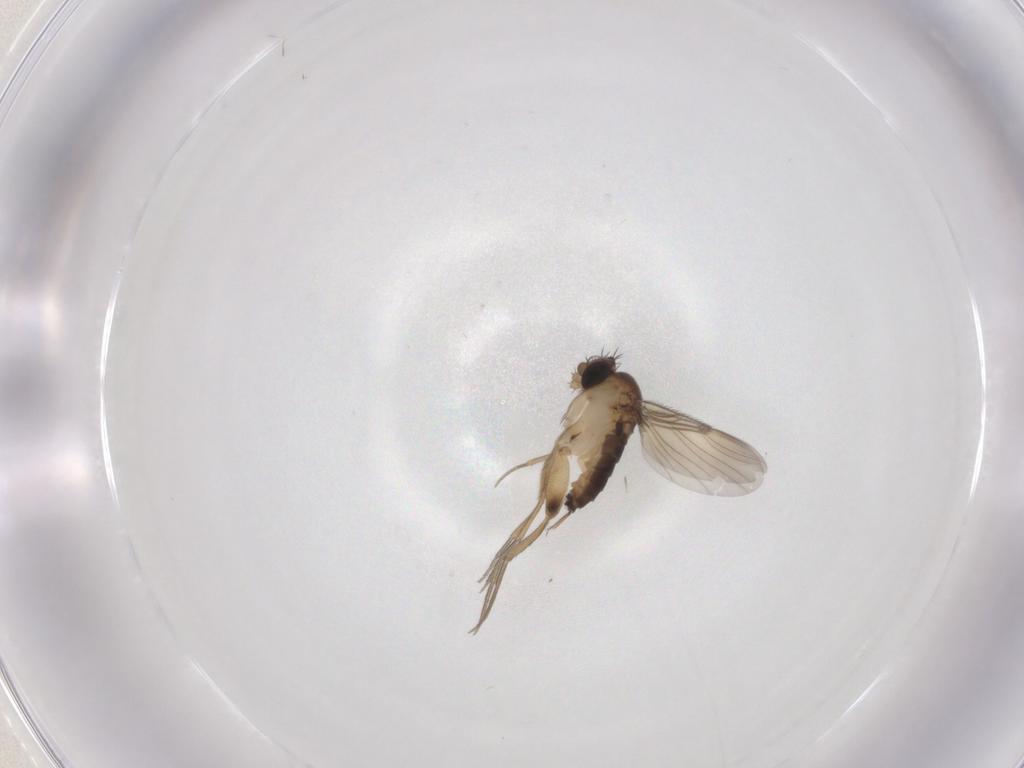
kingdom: Animalia
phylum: Arthropoda
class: Insecta
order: Diptera
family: Phoridae
